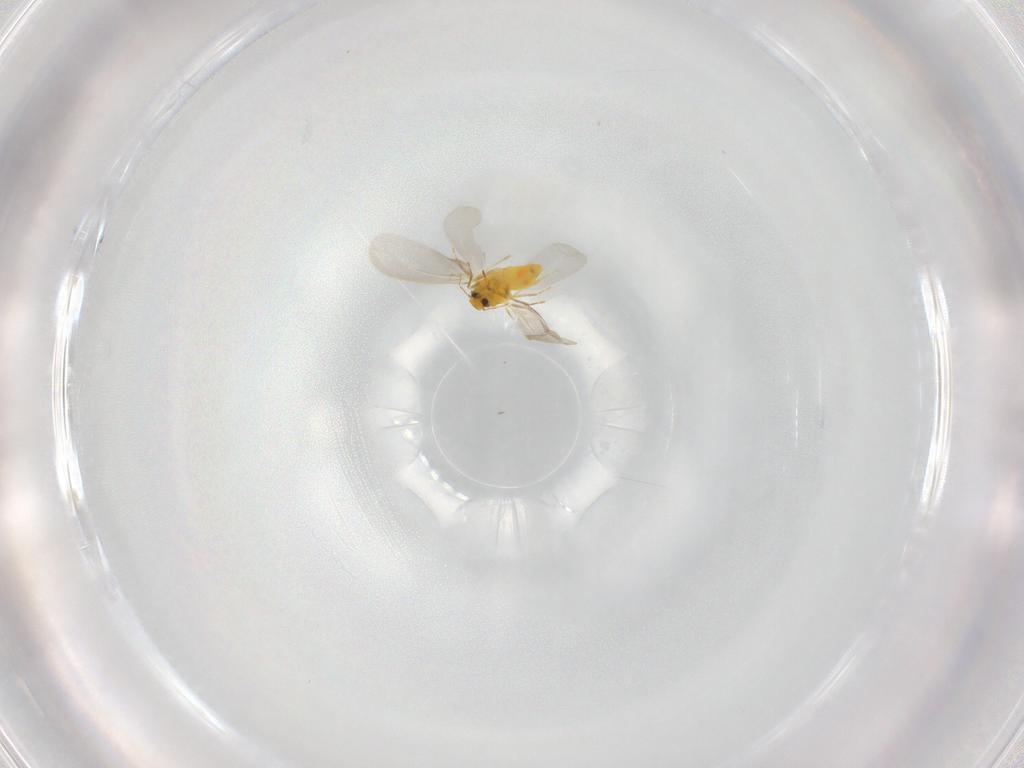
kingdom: Animalia
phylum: Arthropoda
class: Insecta
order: Hemiptera
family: Aleyrodidae
